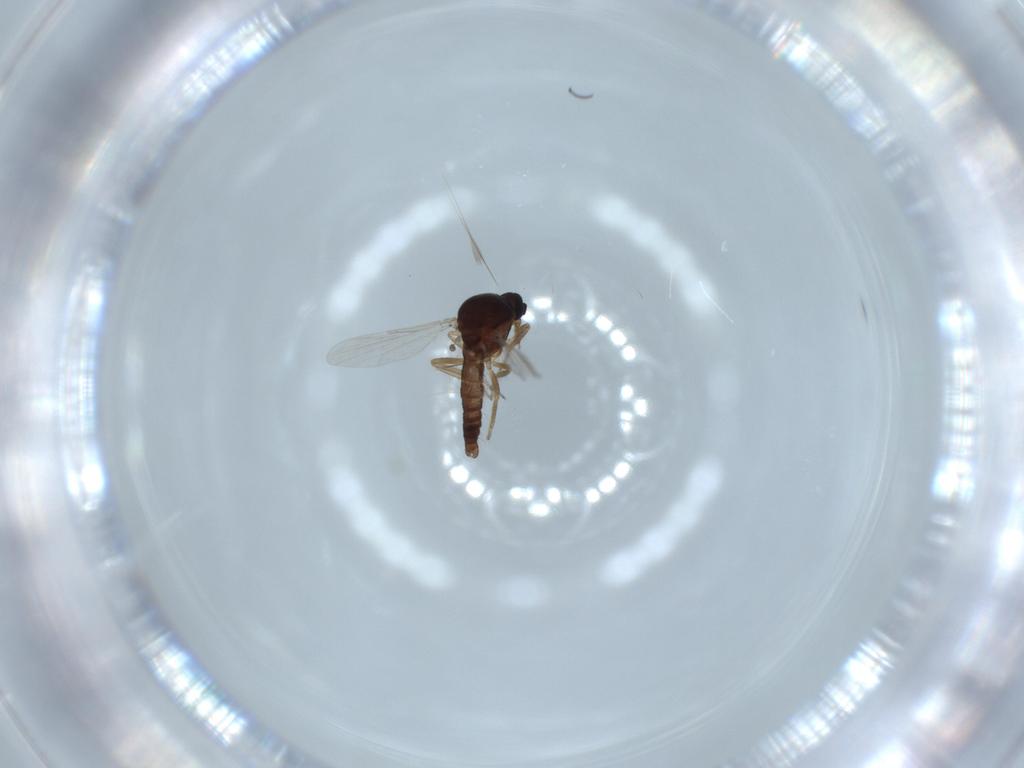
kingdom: Animalia
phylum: Arthropoda
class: Insecta
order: Diptera
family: Ceratopogonidae
